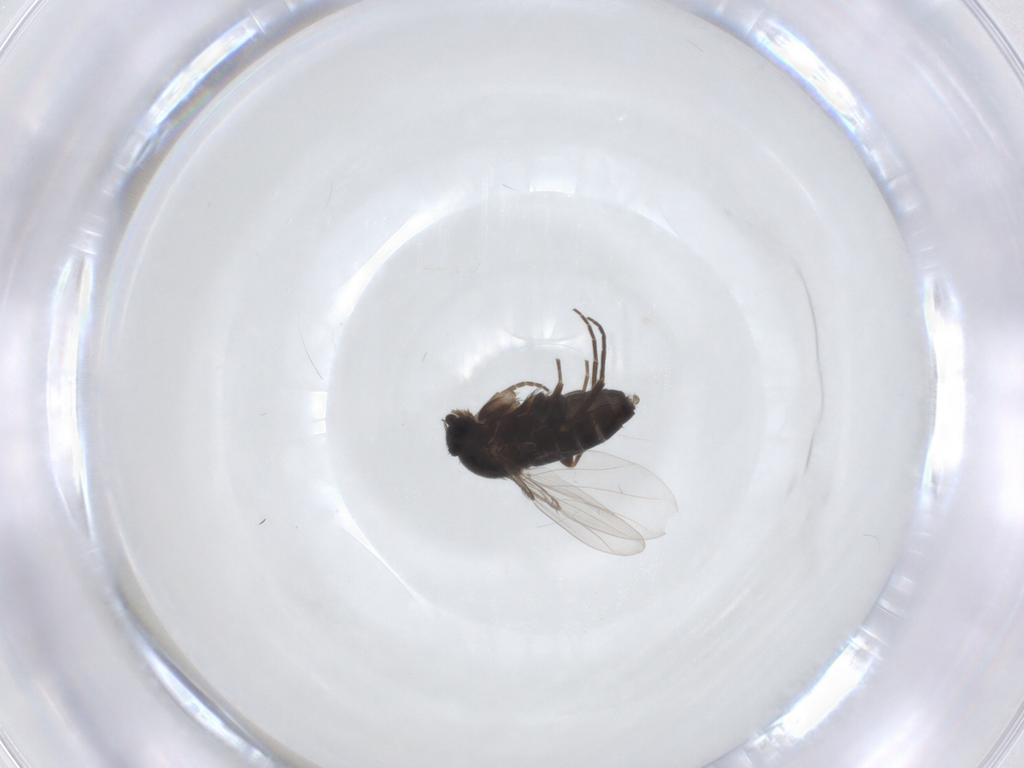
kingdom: Animalia
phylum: Arthropoda
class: Insecta
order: Diptera
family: Phoridae
